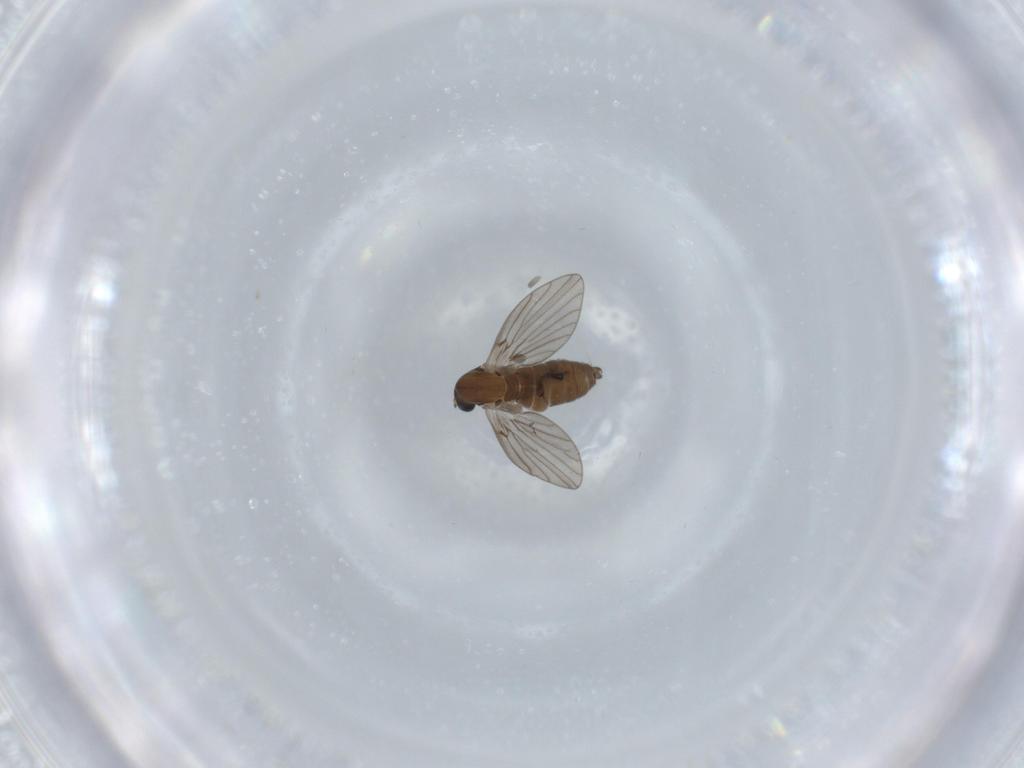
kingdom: Animalia
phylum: Arthropoda
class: Insecta
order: Diptera
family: Psychodidae
